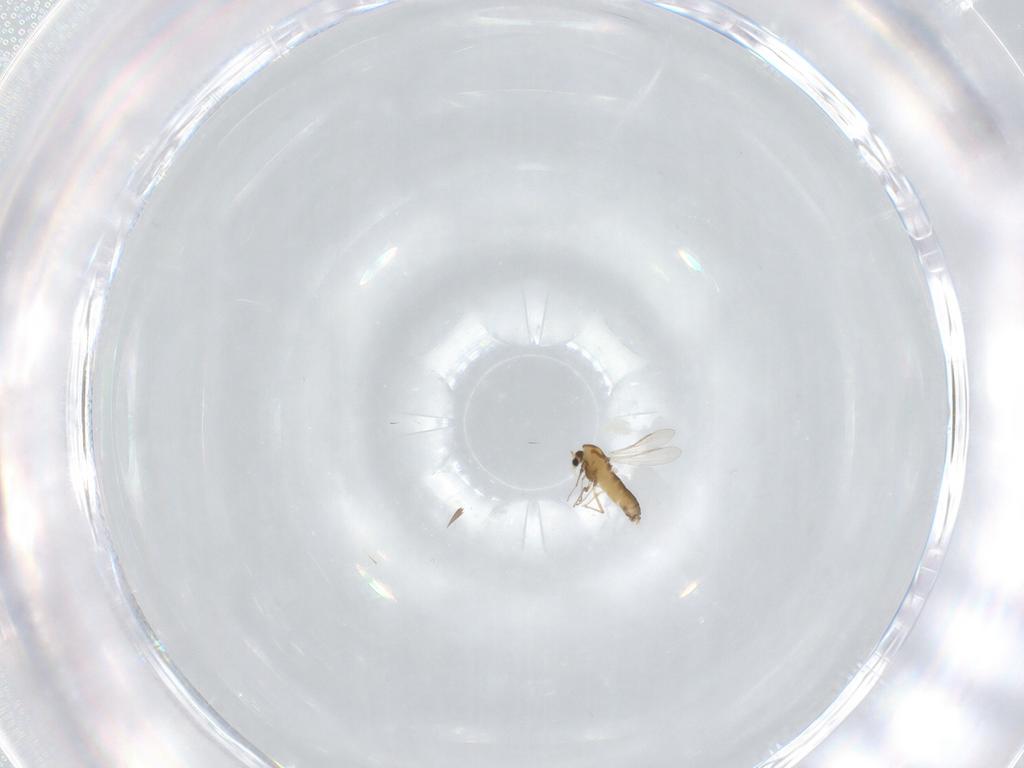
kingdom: Animalia
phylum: Arthropoda
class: Insecta
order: Diptera
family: Chironomidae
